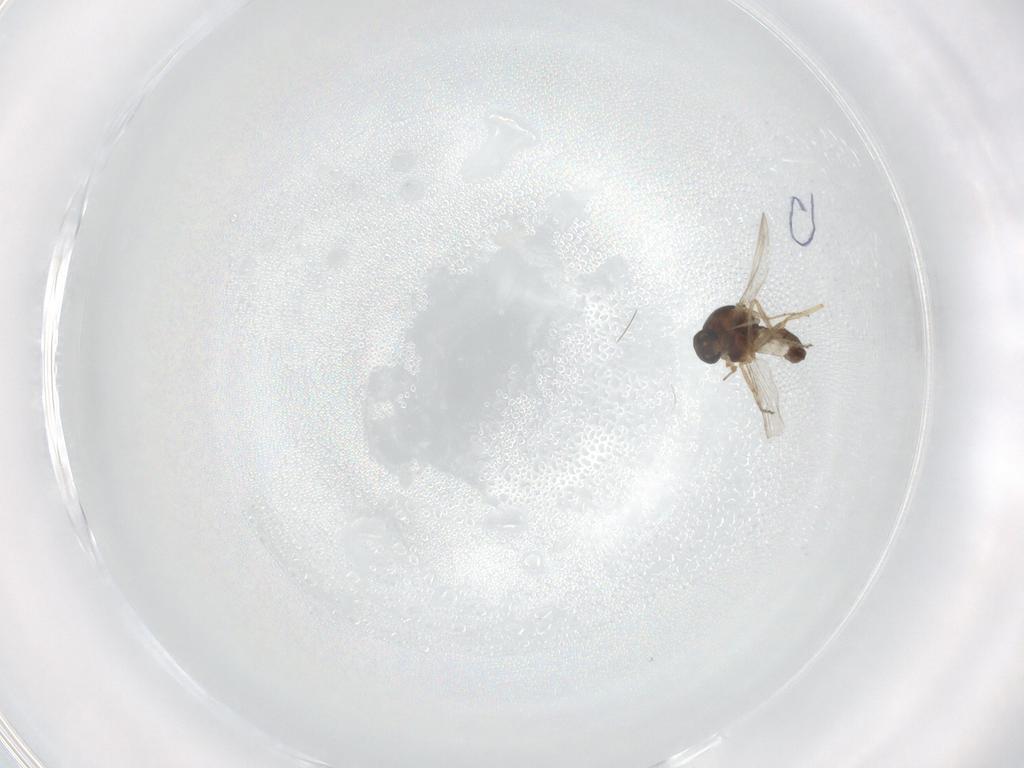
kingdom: Animalia
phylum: Arthropoda
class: Insecta
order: Diptera
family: Ceratopogonidae
